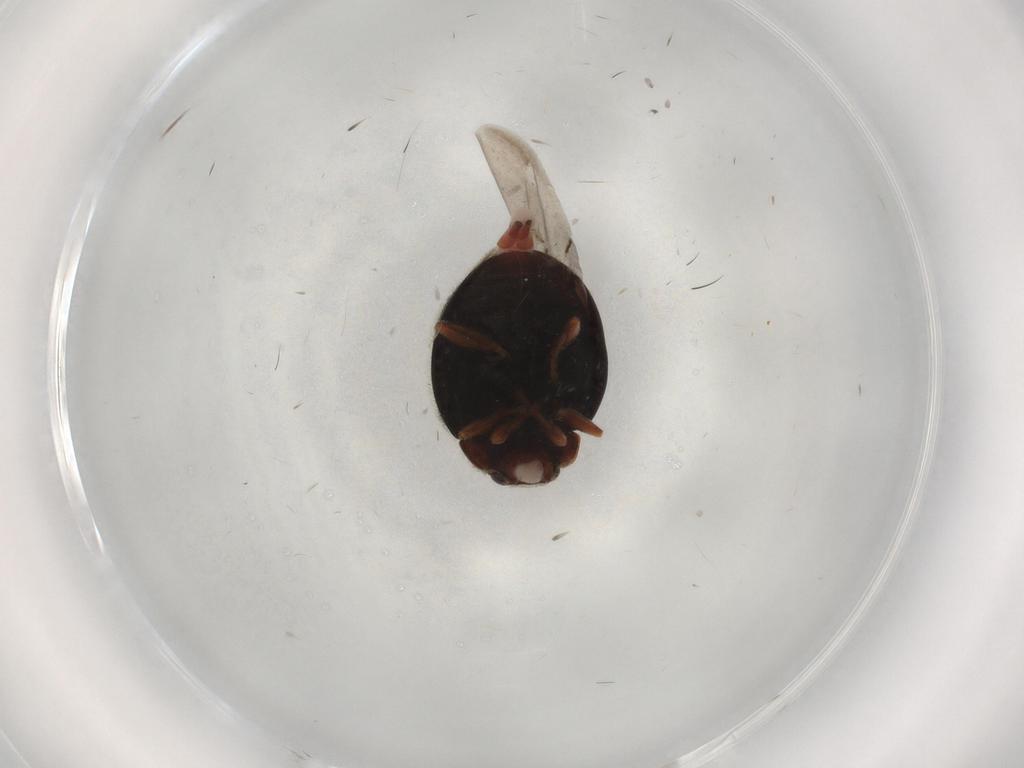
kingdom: Animalia
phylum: Arthropoda
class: Insecta
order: Coleoptera
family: Coccinellidae
